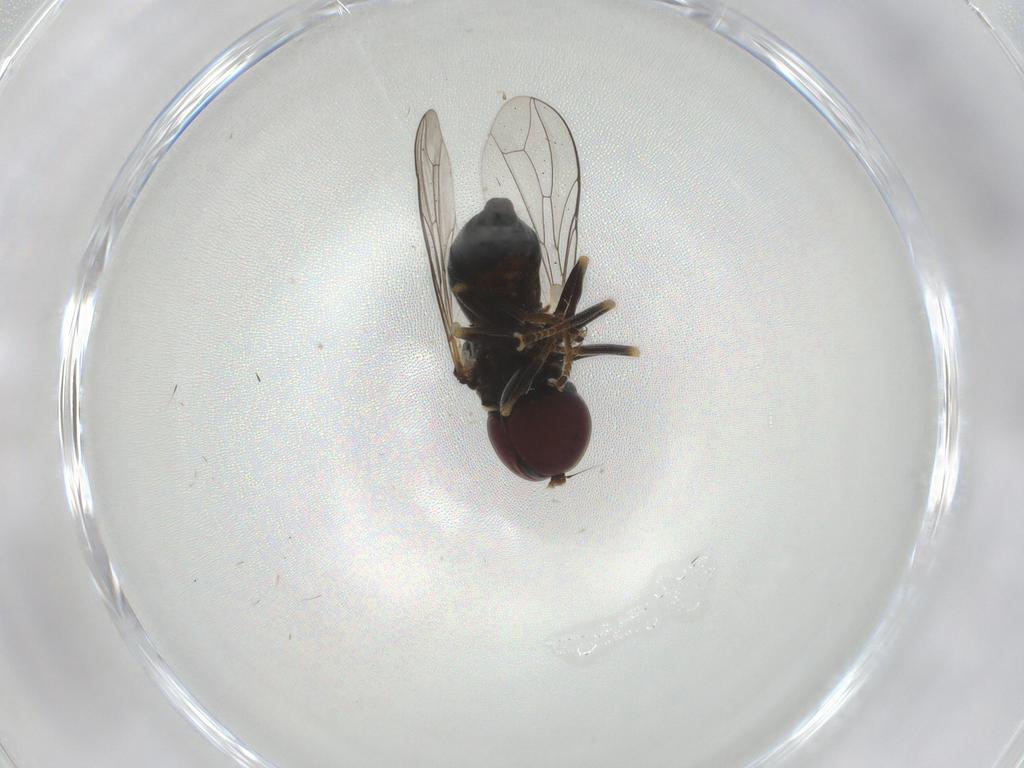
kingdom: Animalia
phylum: Arthropoda
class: Insecta
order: Diptera
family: Pipunculidae
